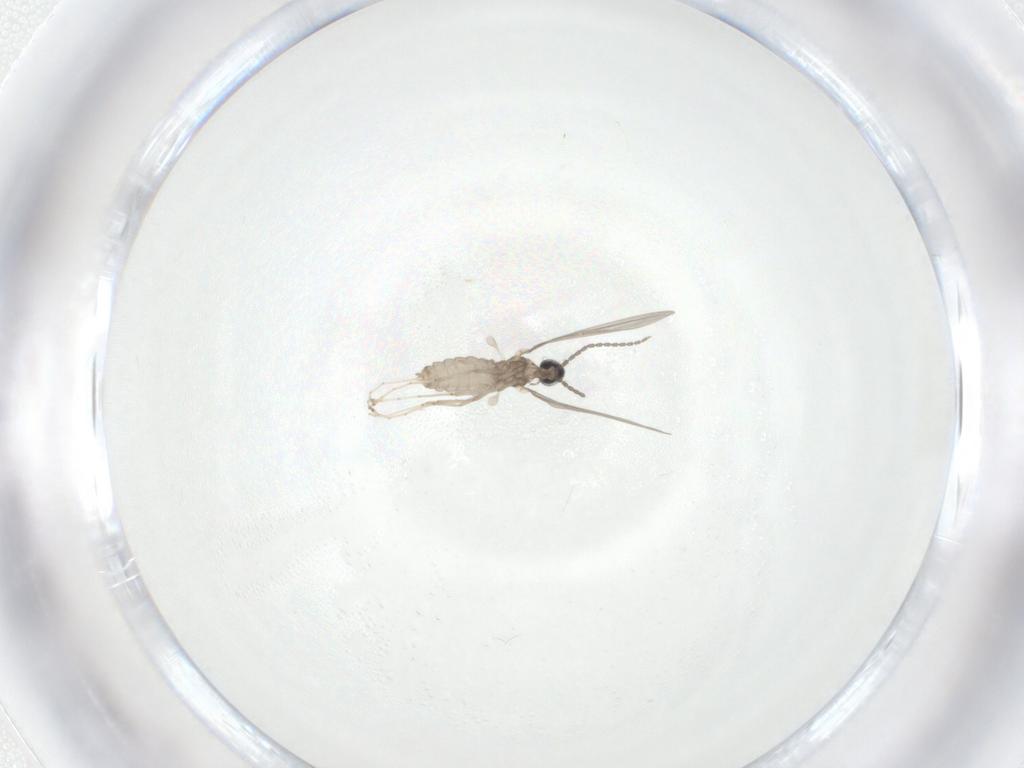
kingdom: Animalia
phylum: Arthropoda
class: Insecta
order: Diptera
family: Cecidomyiidae
